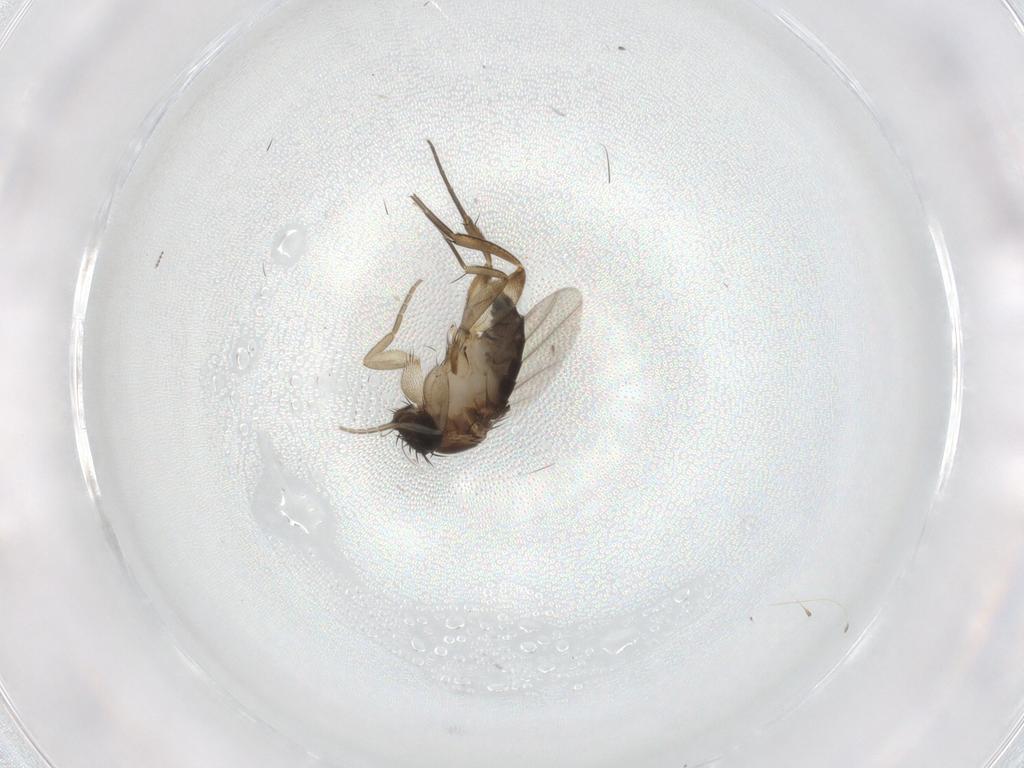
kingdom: Animalia
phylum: Arthropoda
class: Insecta
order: Diptera
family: Phoridae
